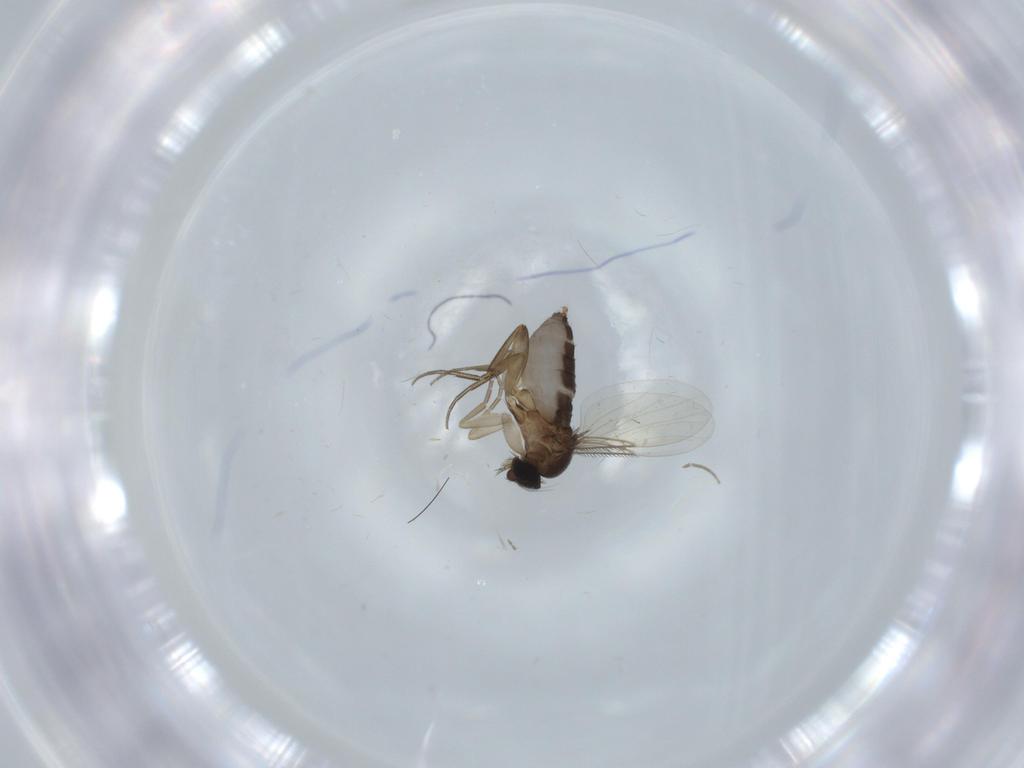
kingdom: Animalia
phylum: Arthropoda
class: Insecta
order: Diptera
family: Phoridae
